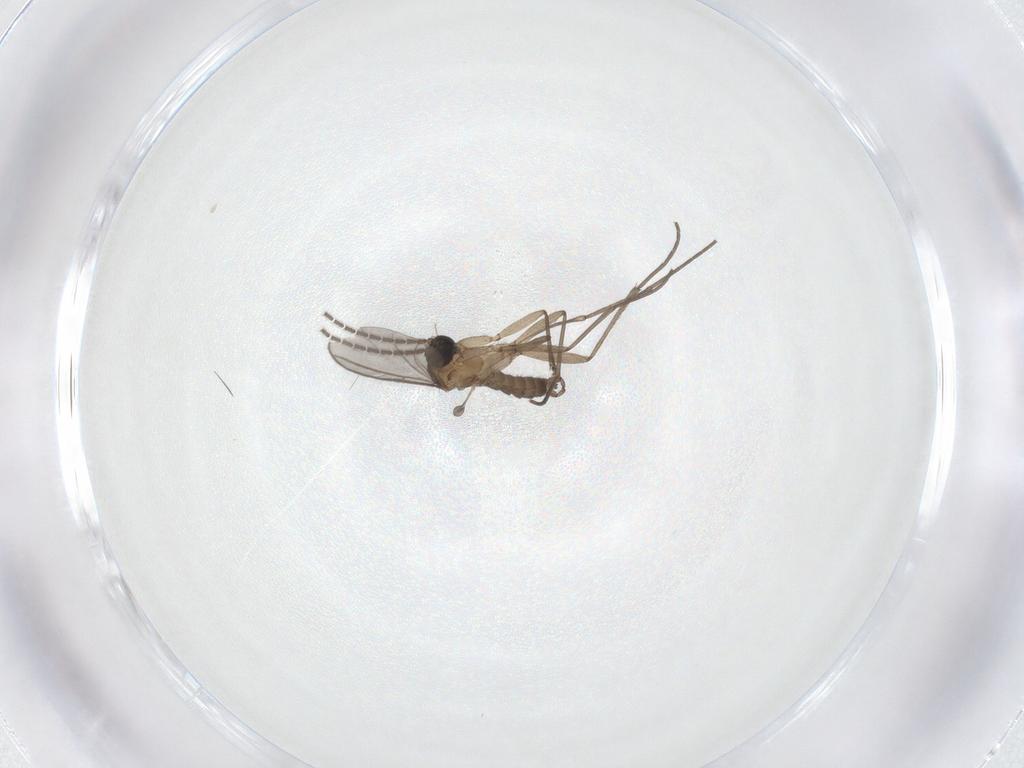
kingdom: Animalia
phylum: Arthropoda
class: Insecta
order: Diptera
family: Sciaridae
